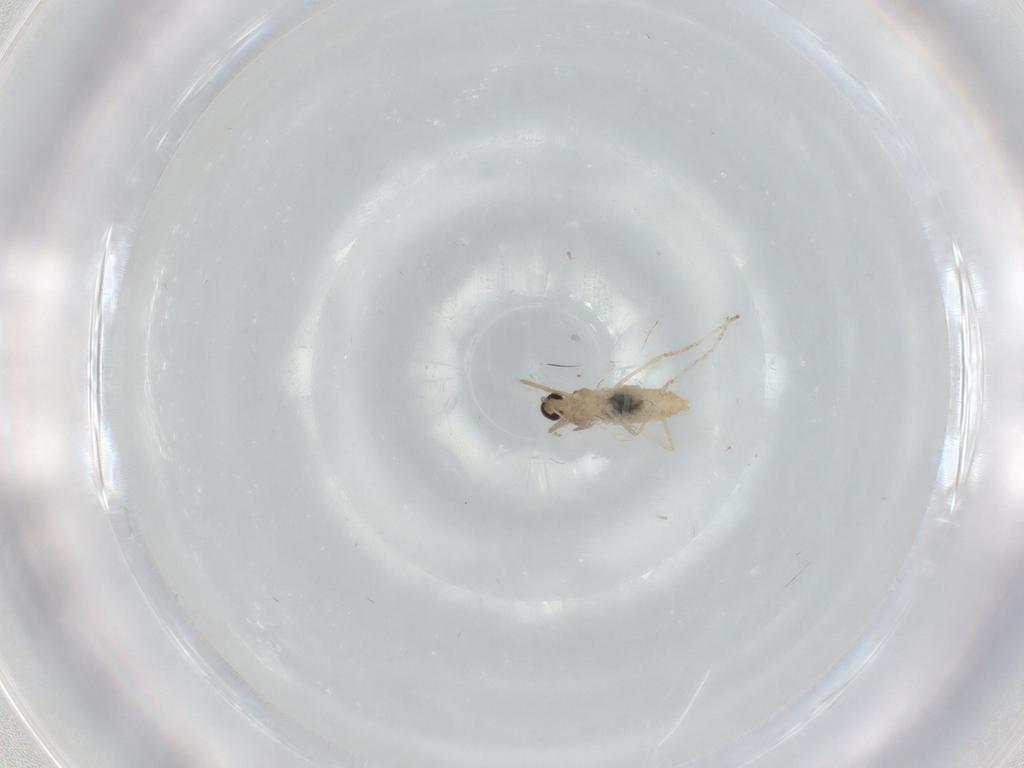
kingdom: Animalia
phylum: Arthropoda
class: Insecta
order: Diptera
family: Cecidomyiidae
